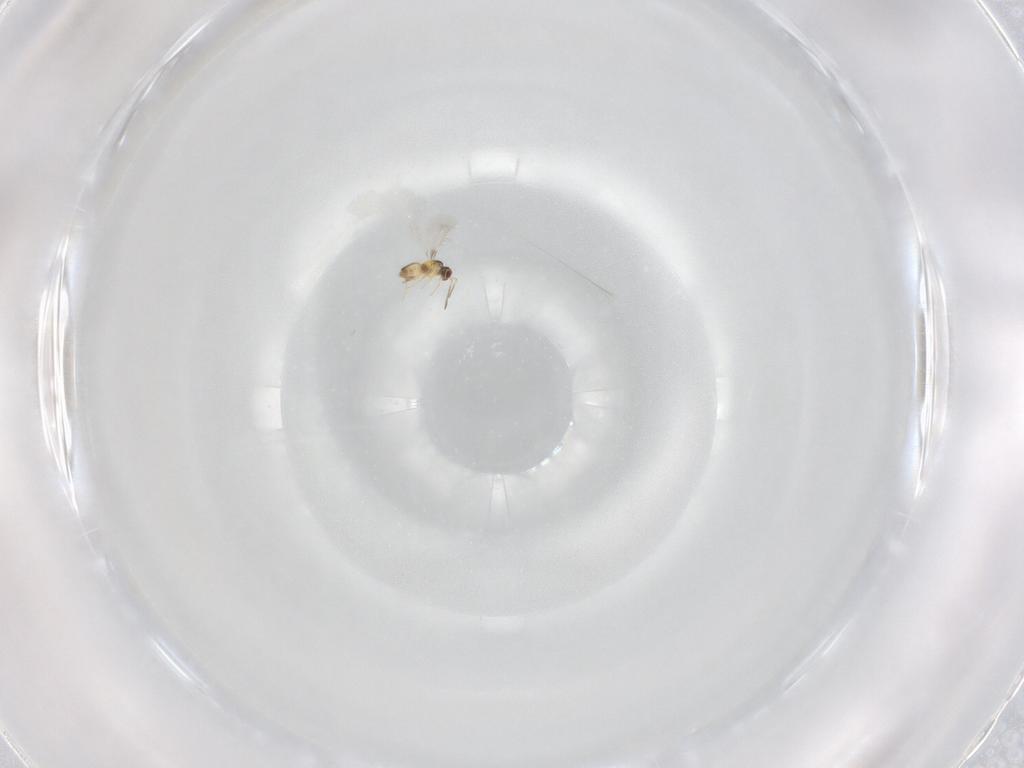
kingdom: Animalia
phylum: Arthropoda
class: Insecta
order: Hymenoptera
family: Mymaridae
